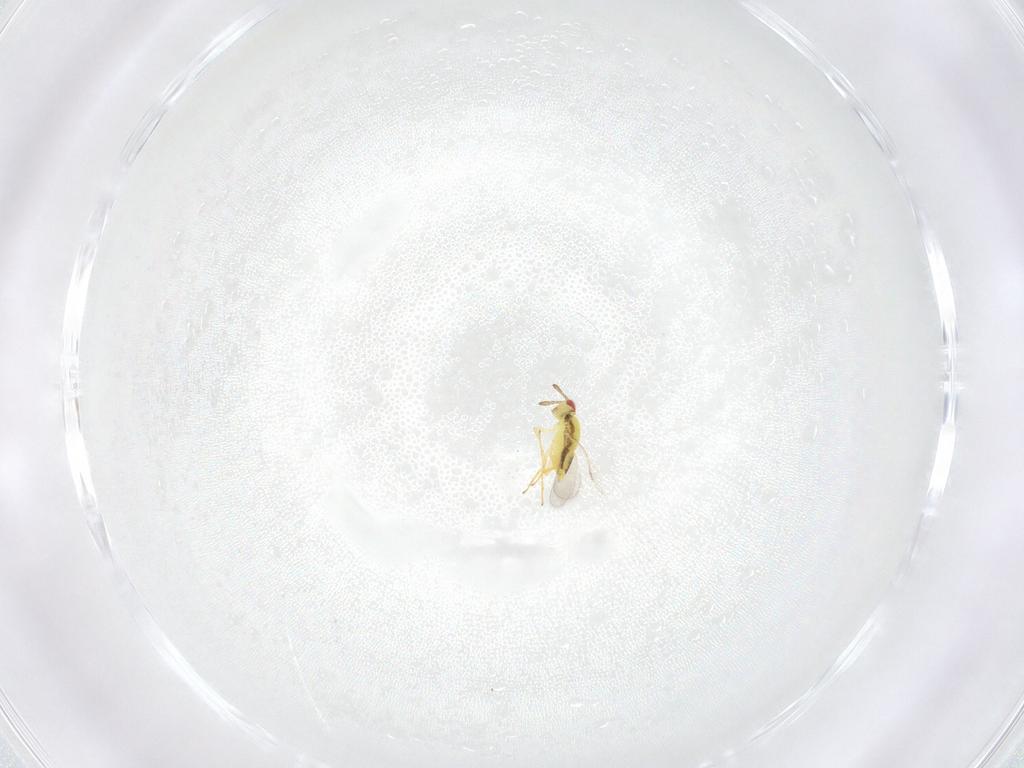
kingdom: Animalia
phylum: Arthropoda
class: Insecta
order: Hymenoptera
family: Aphelinidae
